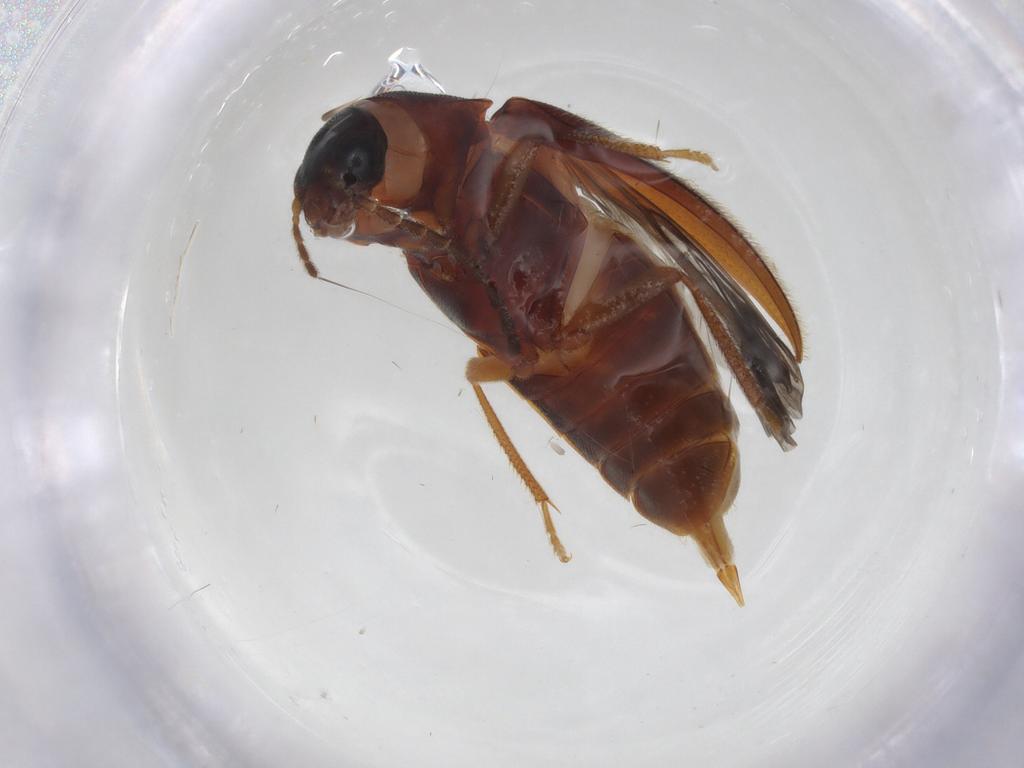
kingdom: Animalia
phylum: Arthropoda
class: Insecta
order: Coleoptera
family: Ptilodactylidae
